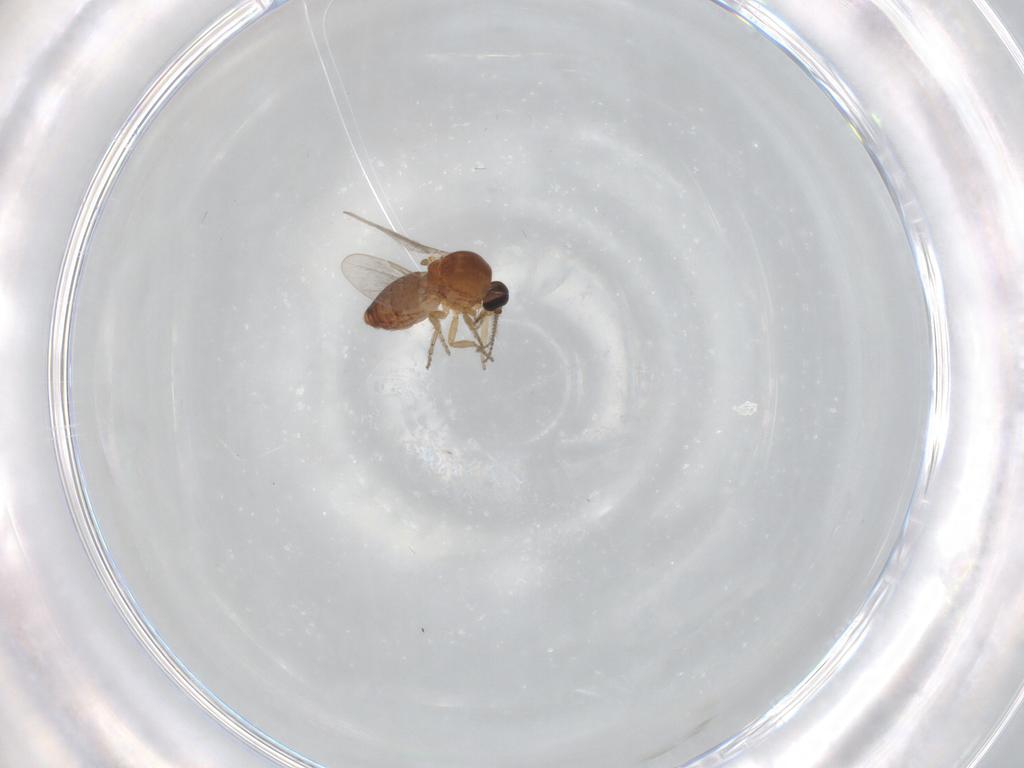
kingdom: Animalia
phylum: Arthropoda
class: Insecta
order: Diptera
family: Ceratopogonidae
